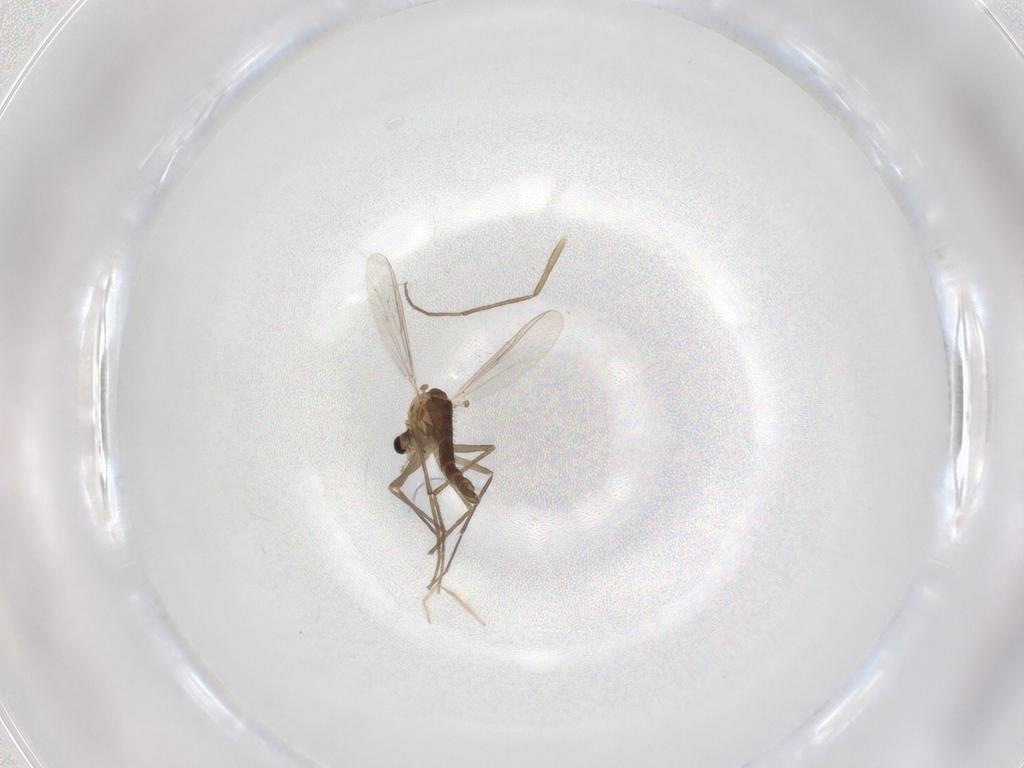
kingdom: Animalia
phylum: Arthropoda
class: Insecta
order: Diptera
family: Chironomidae
